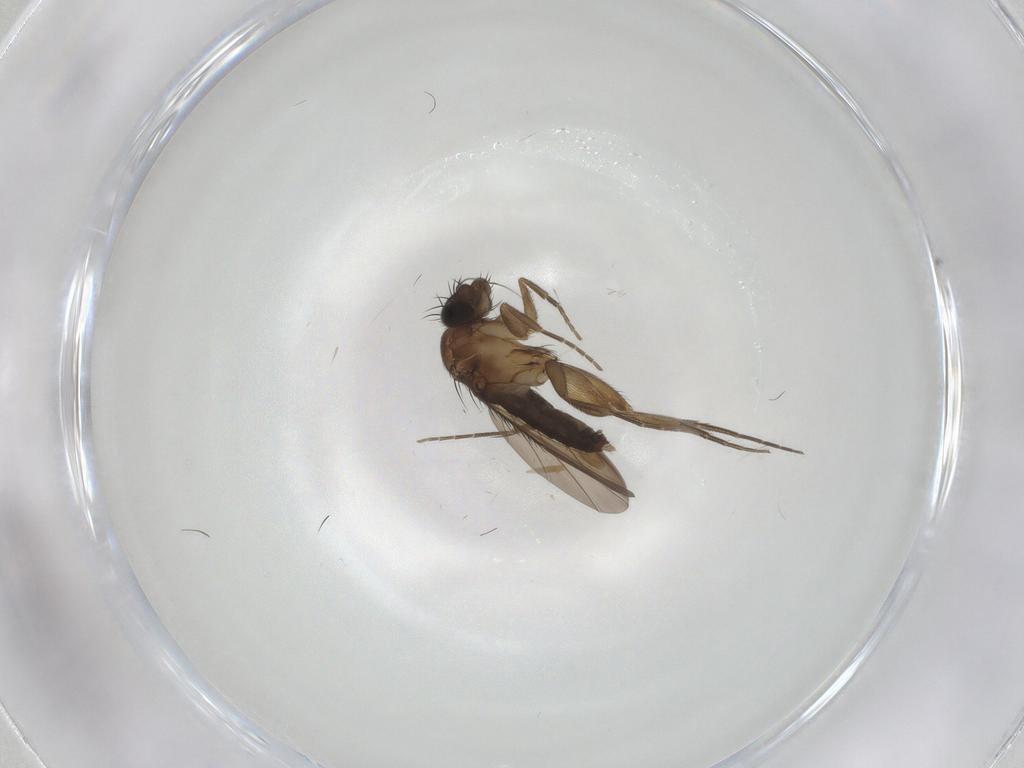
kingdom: Animalia
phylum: Arthropoda
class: Insecta
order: Diptera
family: Phoridae
